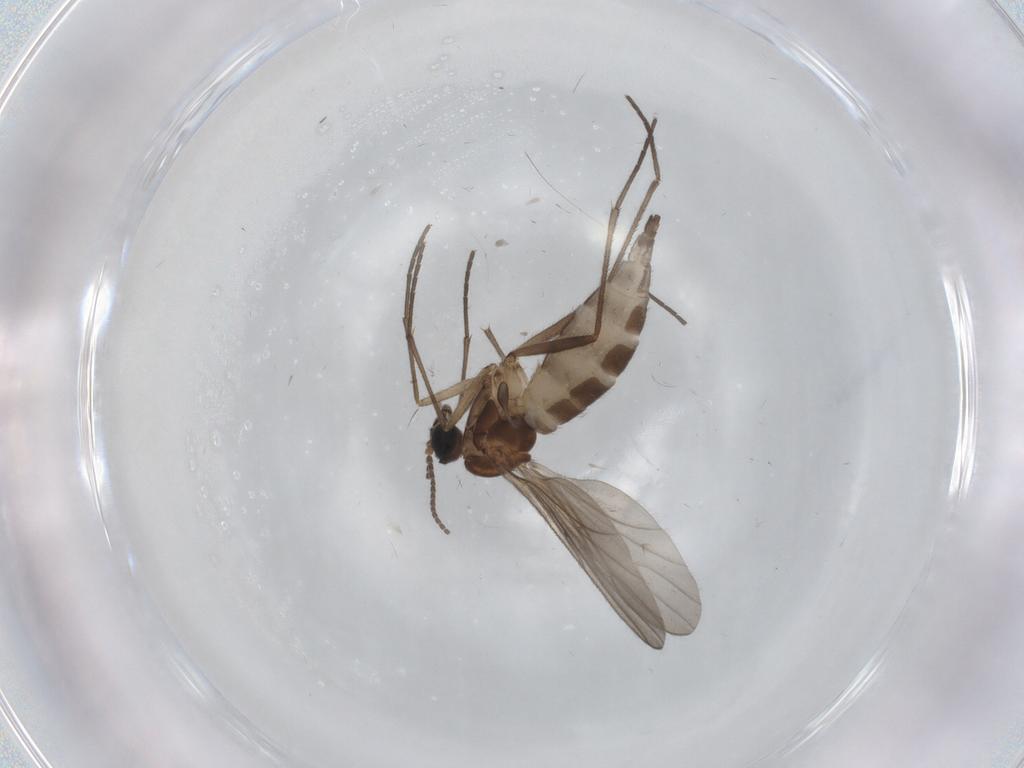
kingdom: Animalia
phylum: Arthropoda
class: Insecta
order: Diptera
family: Sciaridae
